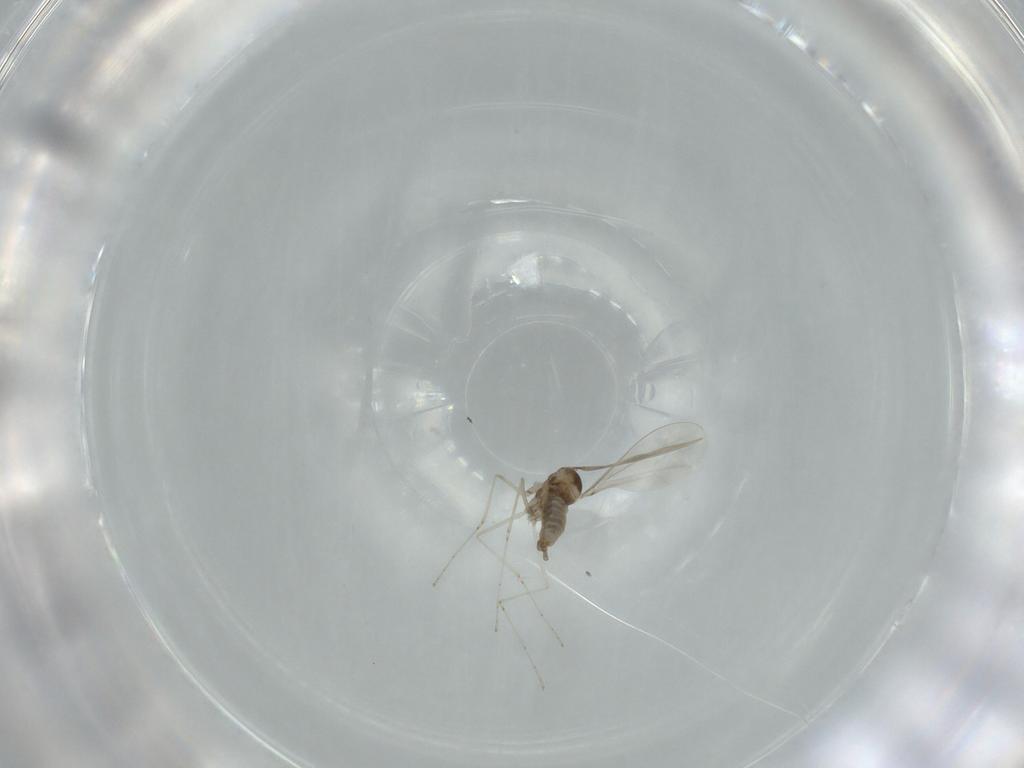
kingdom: Animalia
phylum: Arthropoda
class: Insecta
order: Diptera
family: Cecidomyiidae
